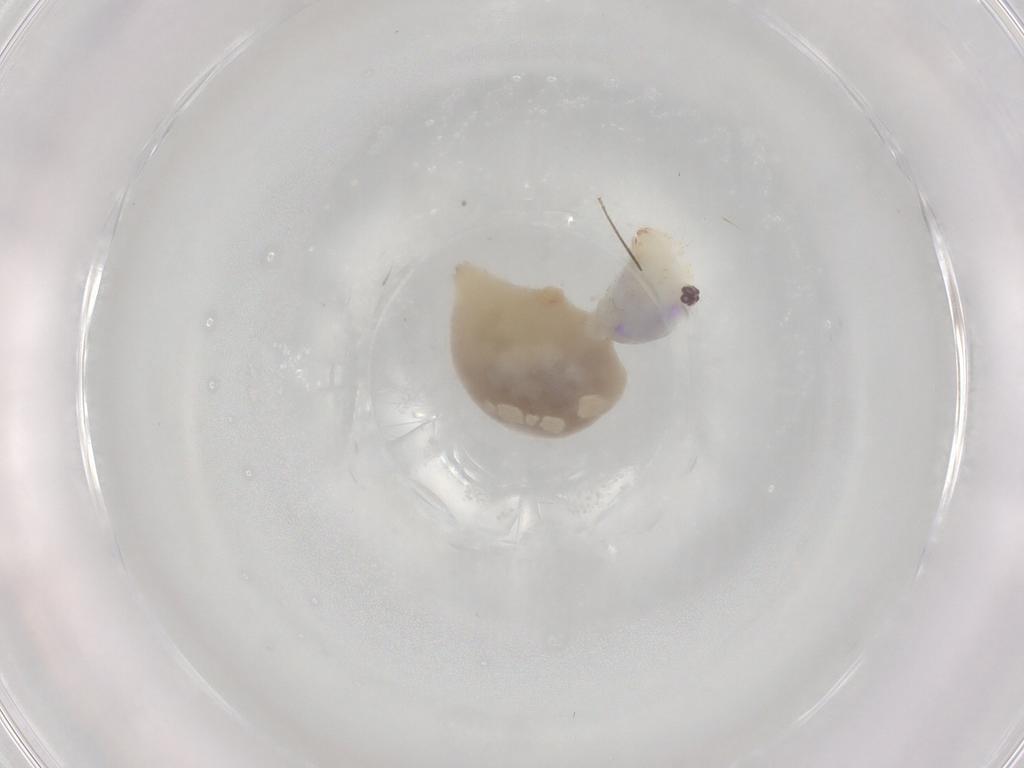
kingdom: Animalia
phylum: Arthropoda
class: Arachnida
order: Araneae
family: Pholcidae
